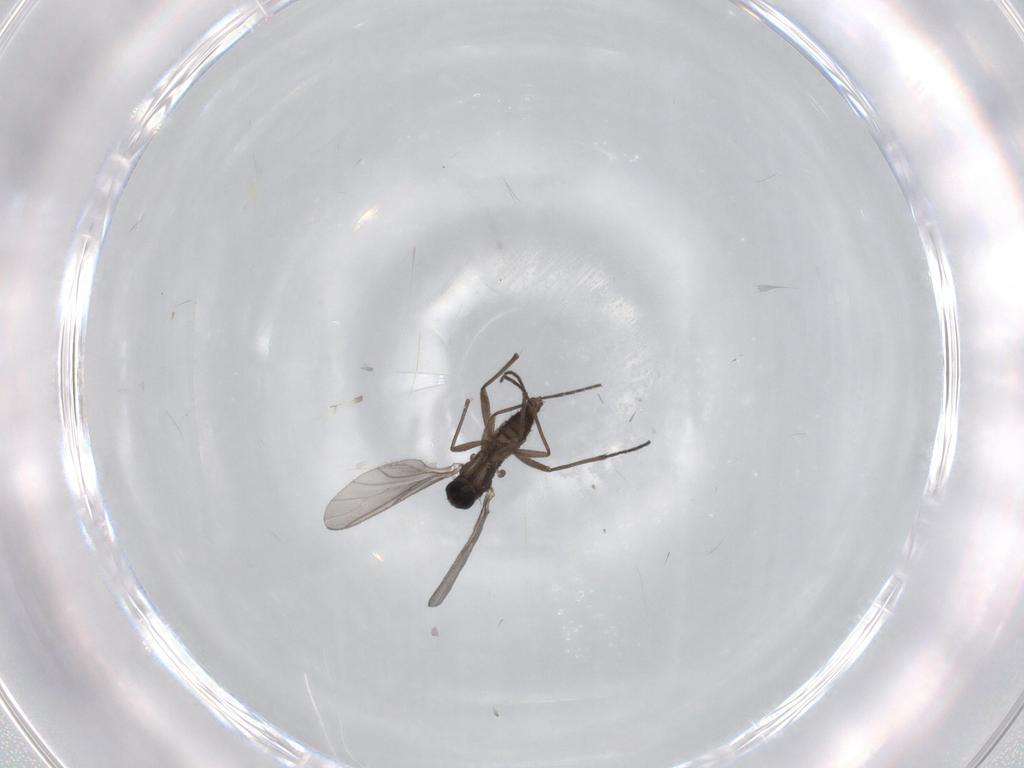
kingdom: Animalia
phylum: Arthropoda
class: Insecta
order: Diptera
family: Sciaridae
